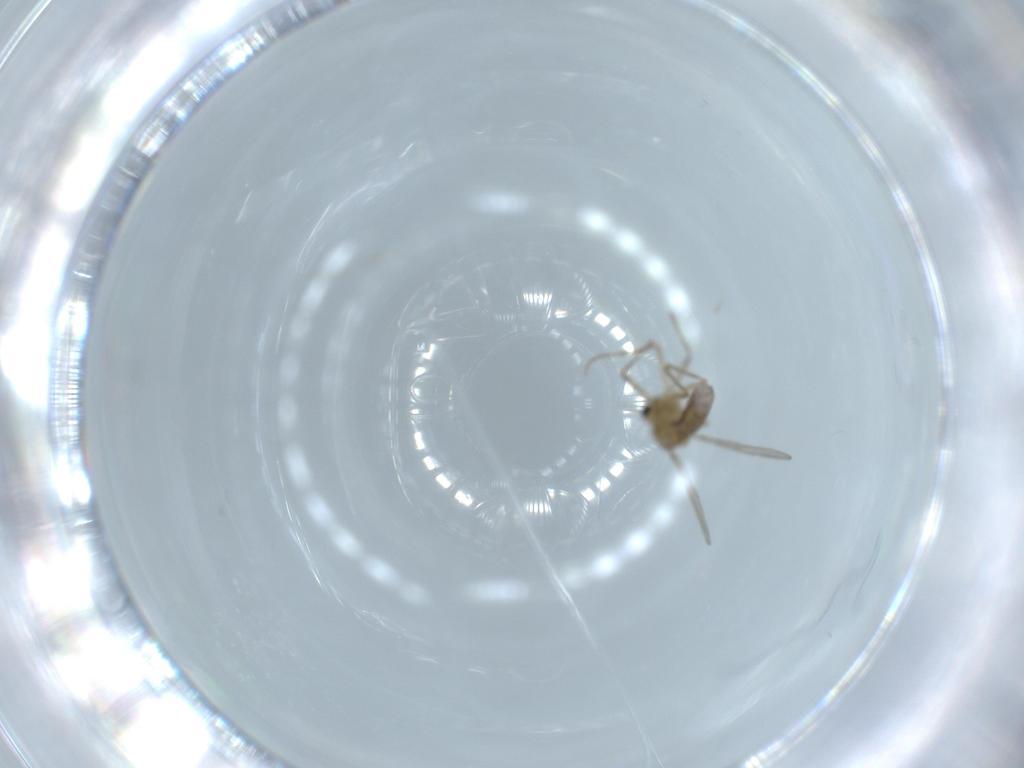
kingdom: Animalia
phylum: Arthropoda
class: Insecta
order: Diptera
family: Chironomidae
